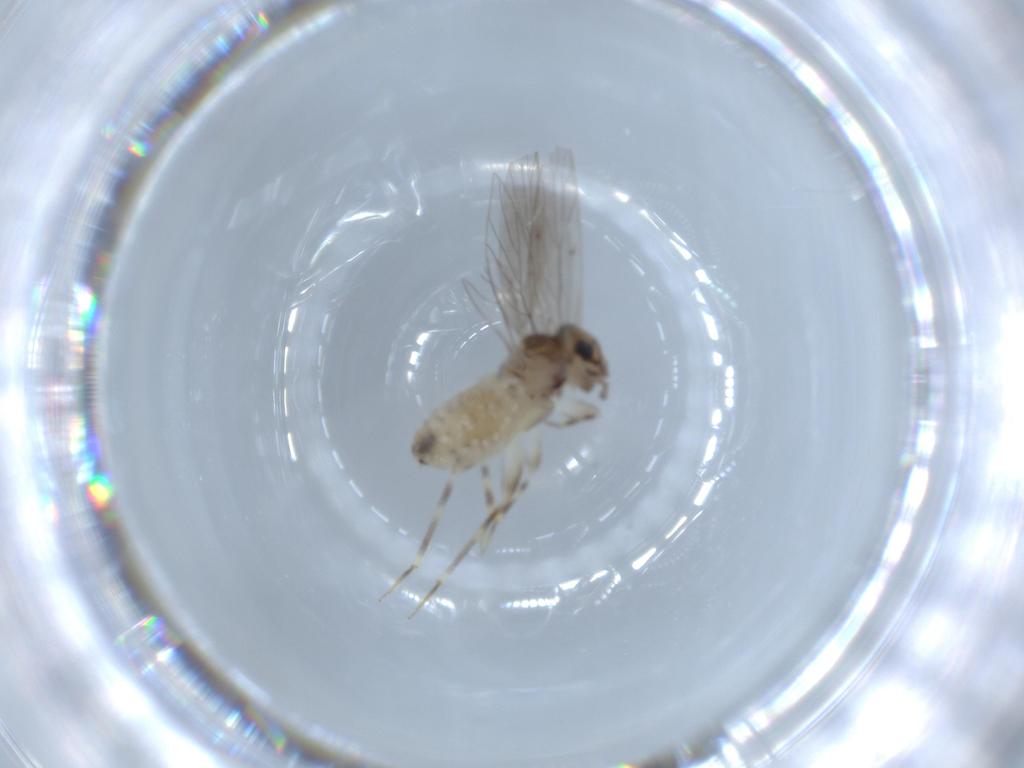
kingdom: Animalia
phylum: Arthropoda
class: Insecta
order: Psocodea
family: Lepidopsocidae
